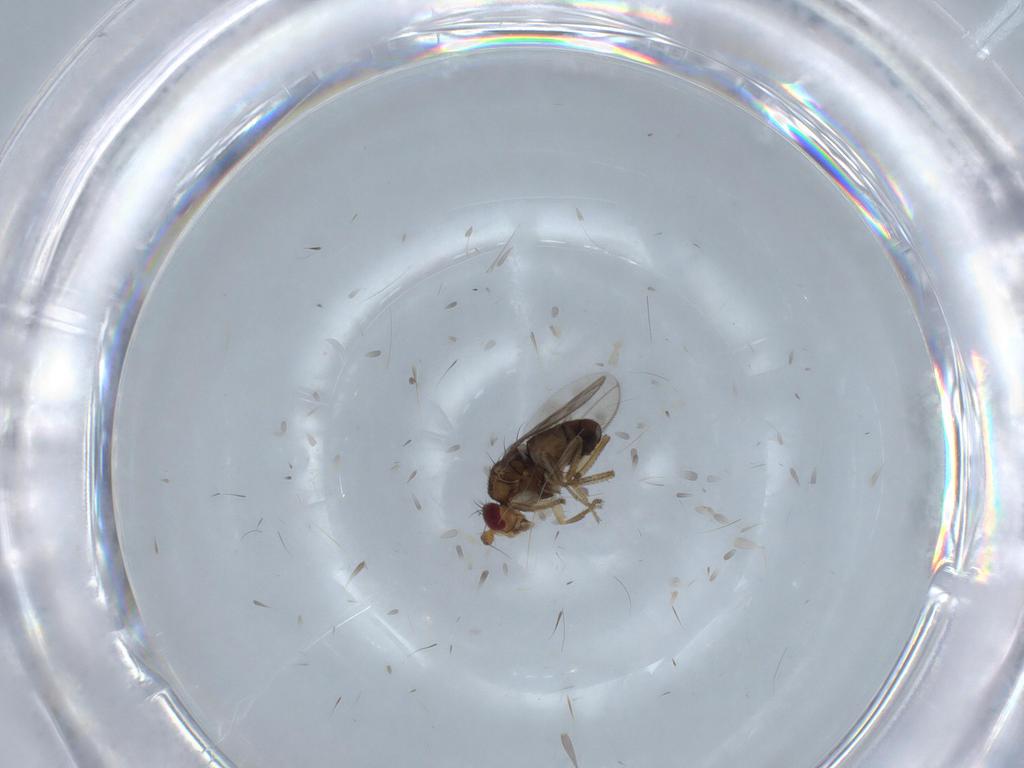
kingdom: Animalia
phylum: Arthropoda
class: Insecta
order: Diptera
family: Sphaeroceridae
